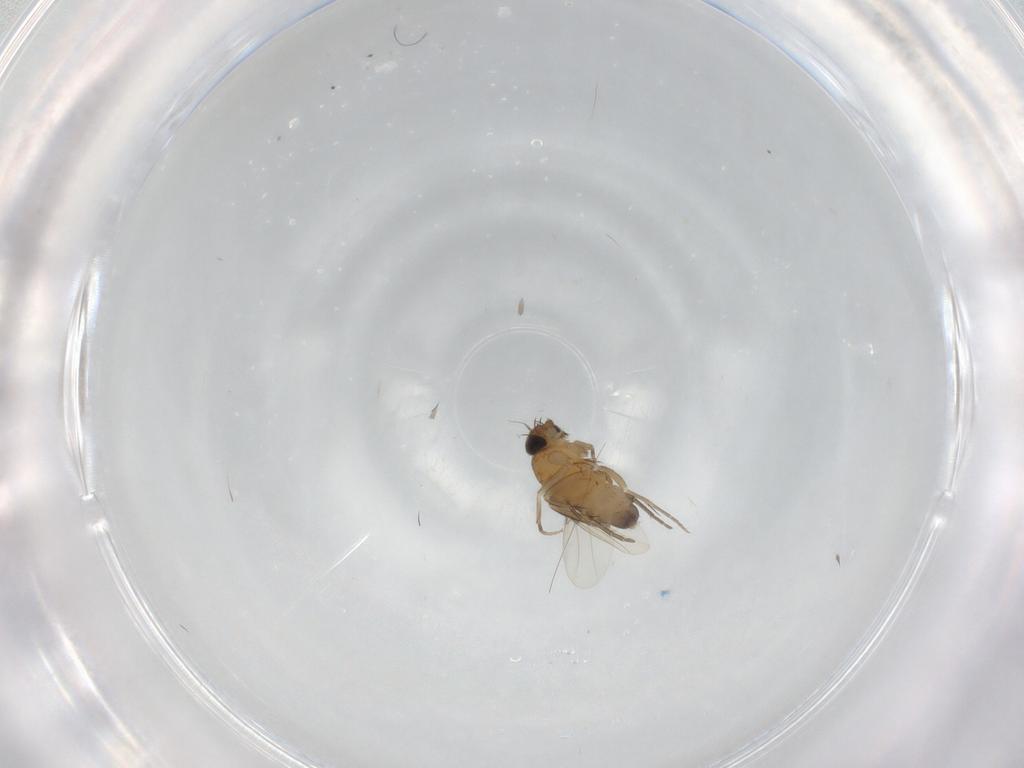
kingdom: Animalia
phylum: Arthropoda
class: Insecta
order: Diptera
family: Phoridae
